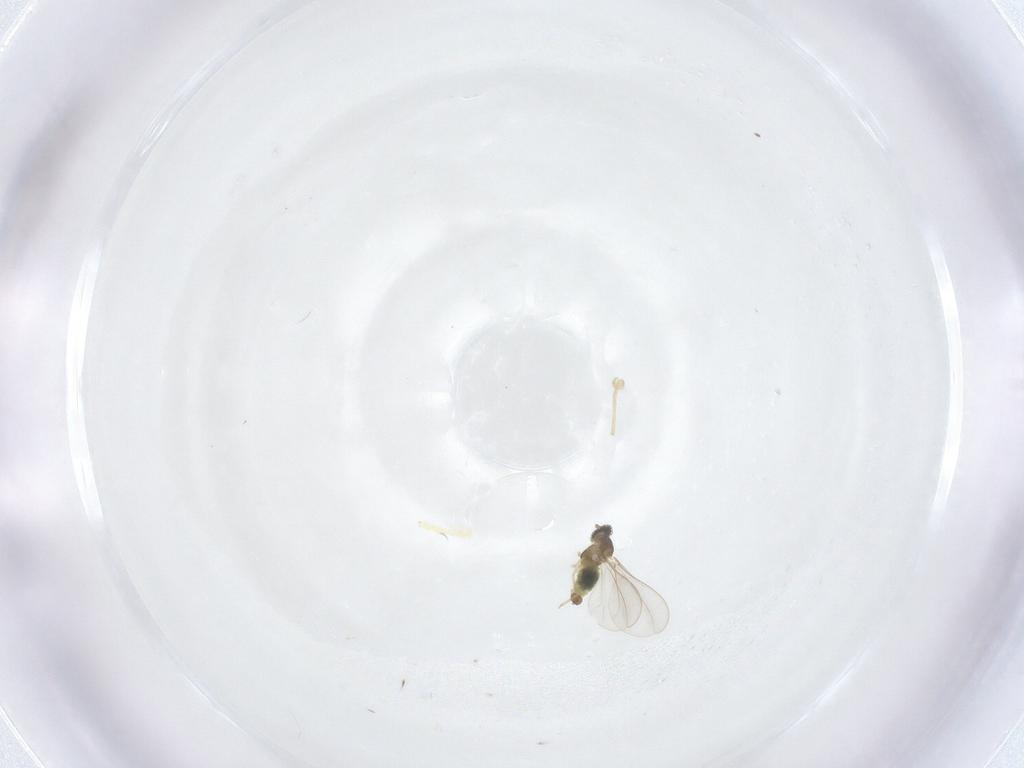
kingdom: Animalia
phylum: Arthropoda
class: Insecta
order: Diptera
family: Cecidomyiidae
